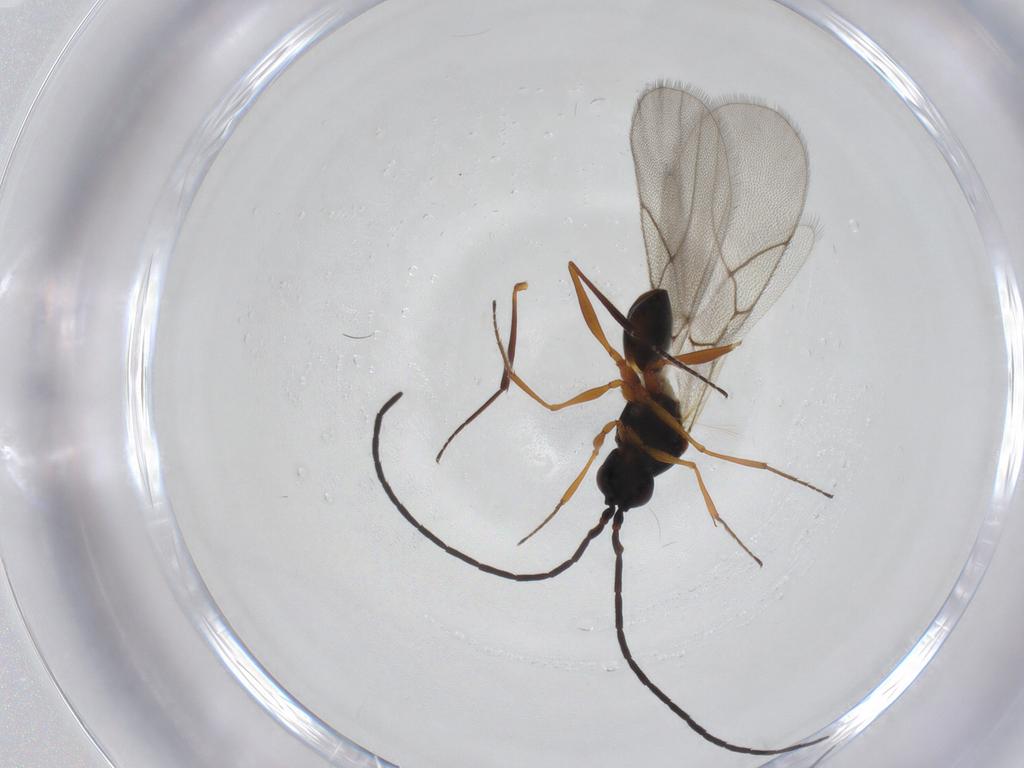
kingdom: Animalia
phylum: Arthropoda
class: Insecta
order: Hymenoptera
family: Figitidae
